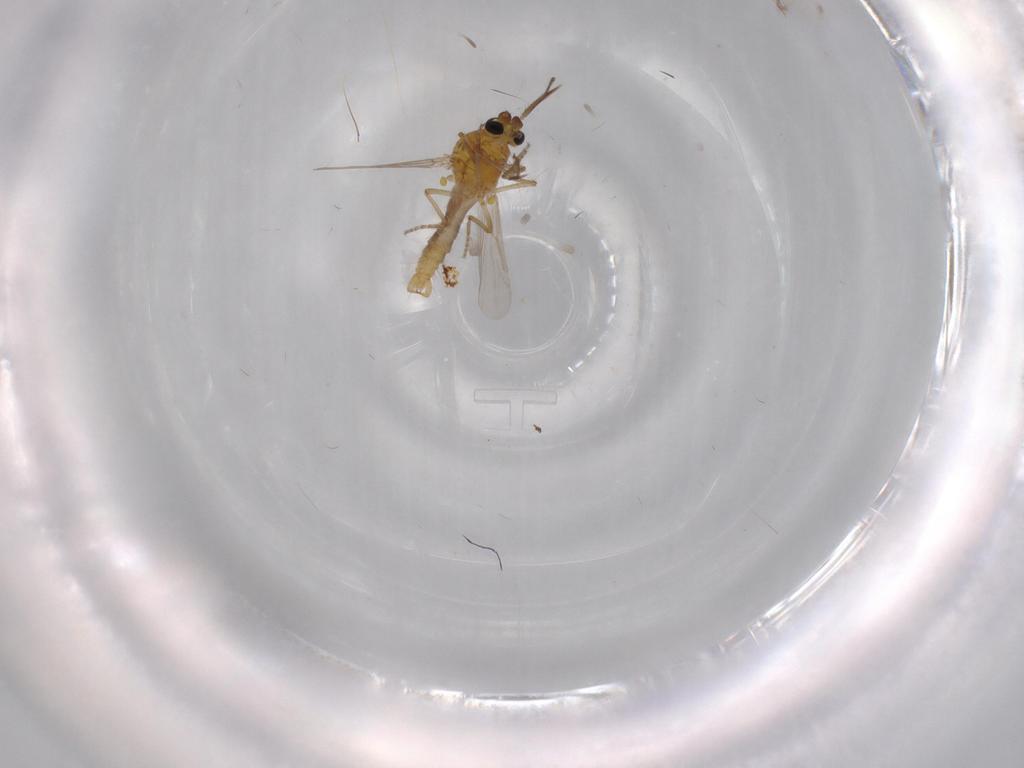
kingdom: Animalia
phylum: Arthropoda
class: Insecta
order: Diptera
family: Ceratopogonidae
